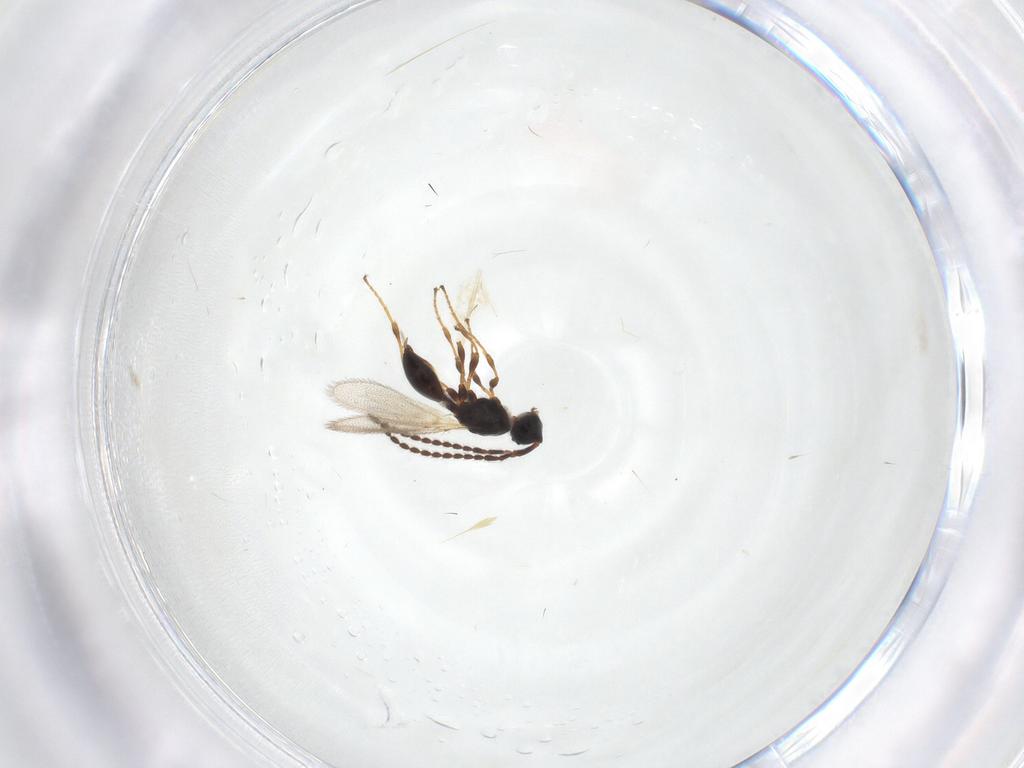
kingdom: Animalia
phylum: Arthropoda
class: Insecta
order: Hymenoptera
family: Diapriidae
